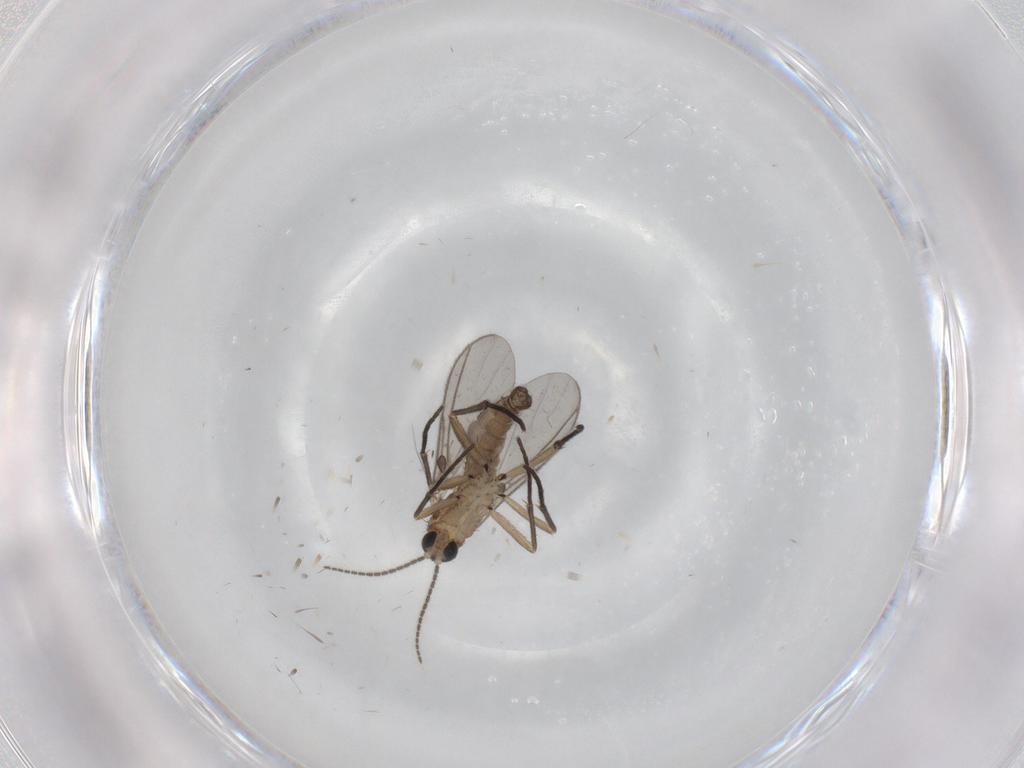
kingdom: Animalia
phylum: Arthropoda
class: Insecta
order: Diptera
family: Sciaridae
